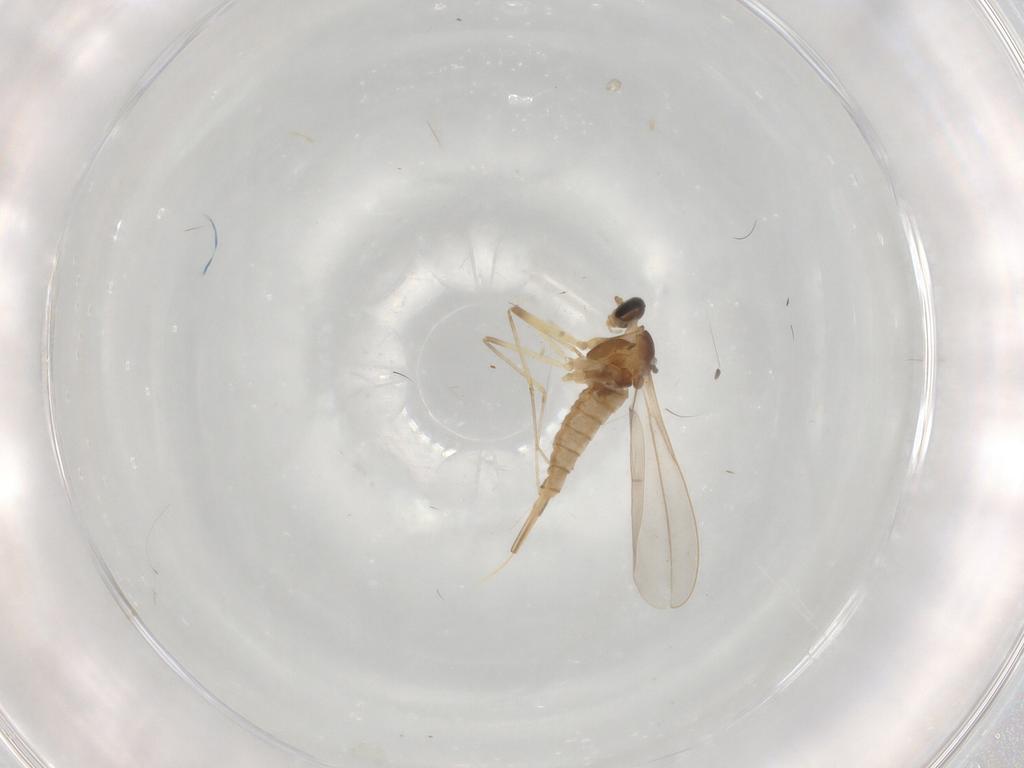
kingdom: Animalia
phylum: Arthropoda
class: Insecta
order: Diptera
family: Cecidomyiidae
